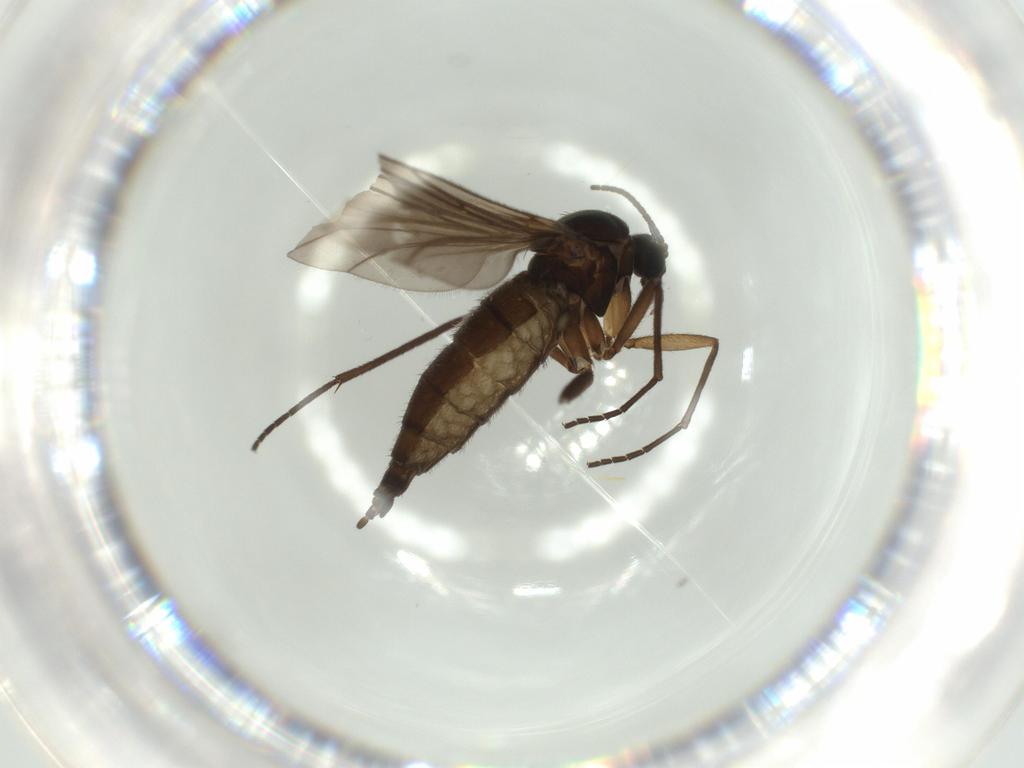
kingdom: Animalia
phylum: Arthropoda
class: Insecta
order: Diptera
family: Sciaridae
